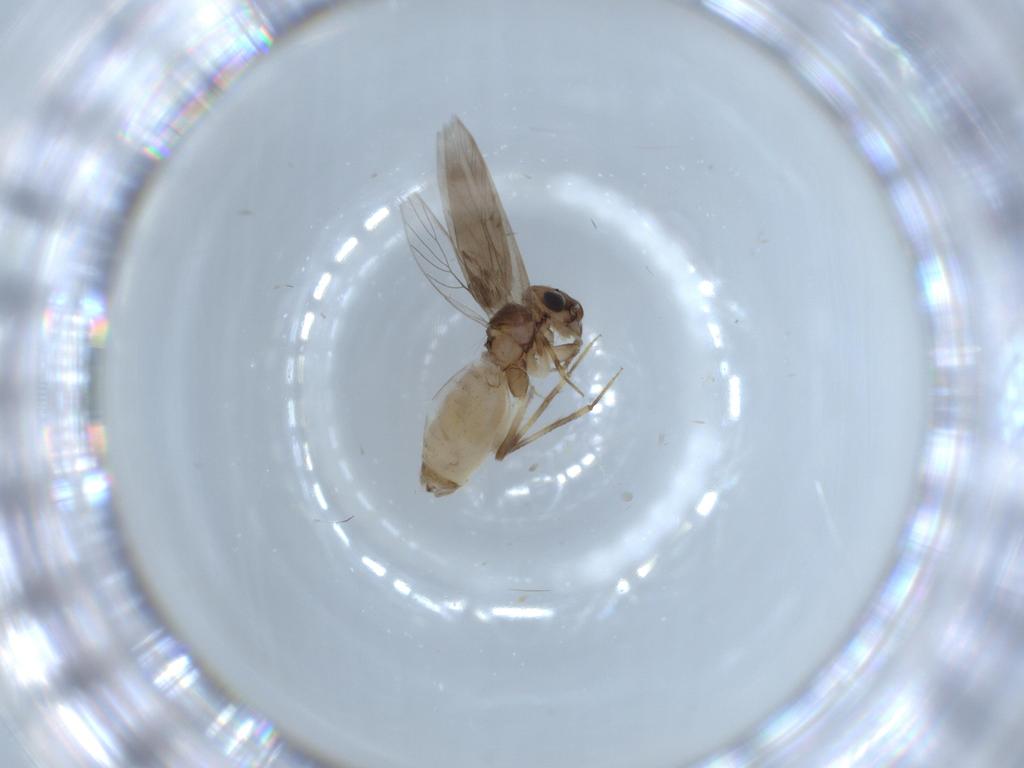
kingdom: Animalia
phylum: Arthropoda
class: Insecta
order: Psocodea
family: Lepidopsocidae
